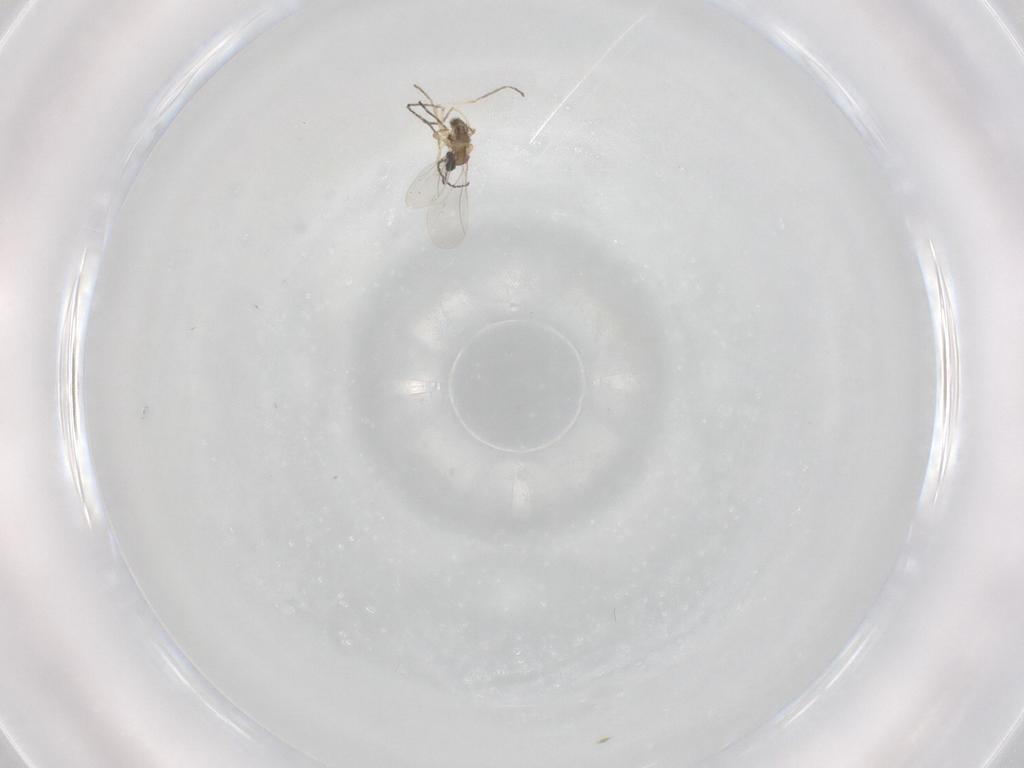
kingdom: Animalia
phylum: Arthropoda
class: Insecta
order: Diptera
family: Cecidomyiidae
